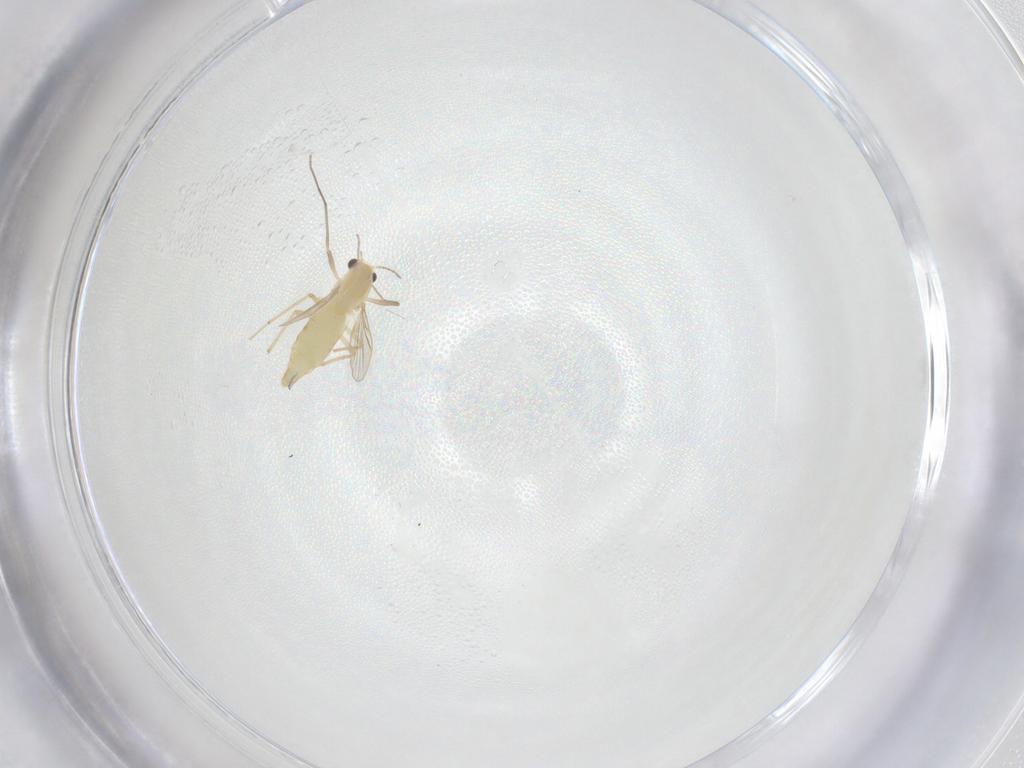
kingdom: Animalia
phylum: Arthropoda
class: Insecta
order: Diptera
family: Chironomidae
